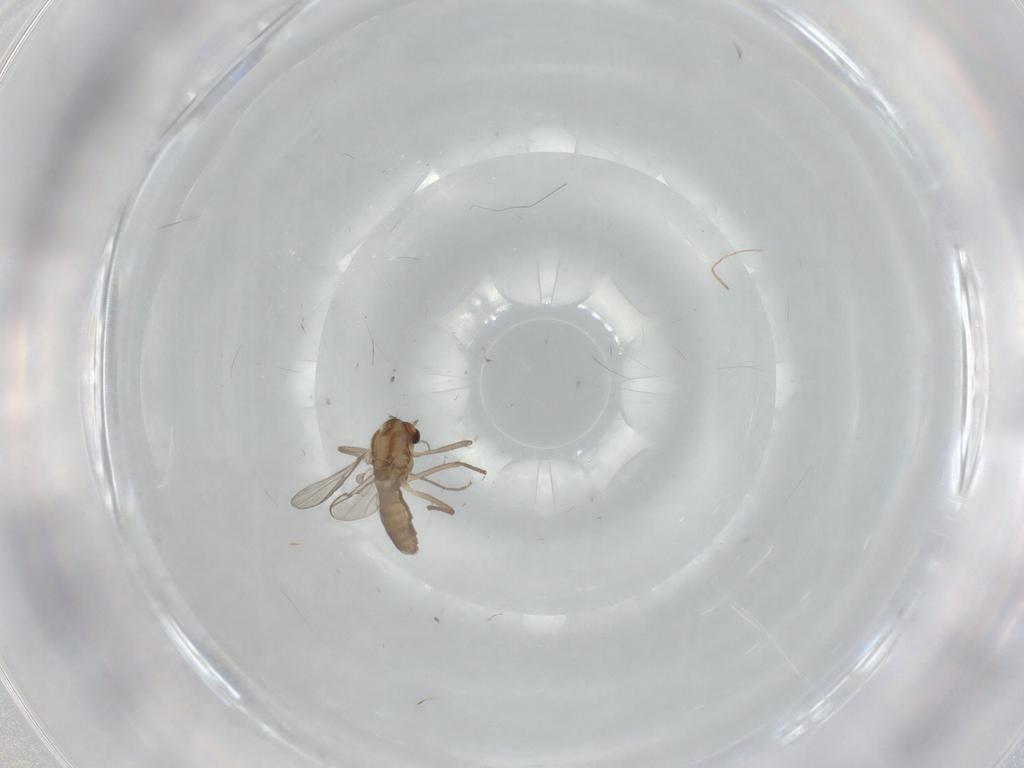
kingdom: Animalia
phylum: Arthropoda
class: Insecta
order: Diptera
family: Chironomidae
